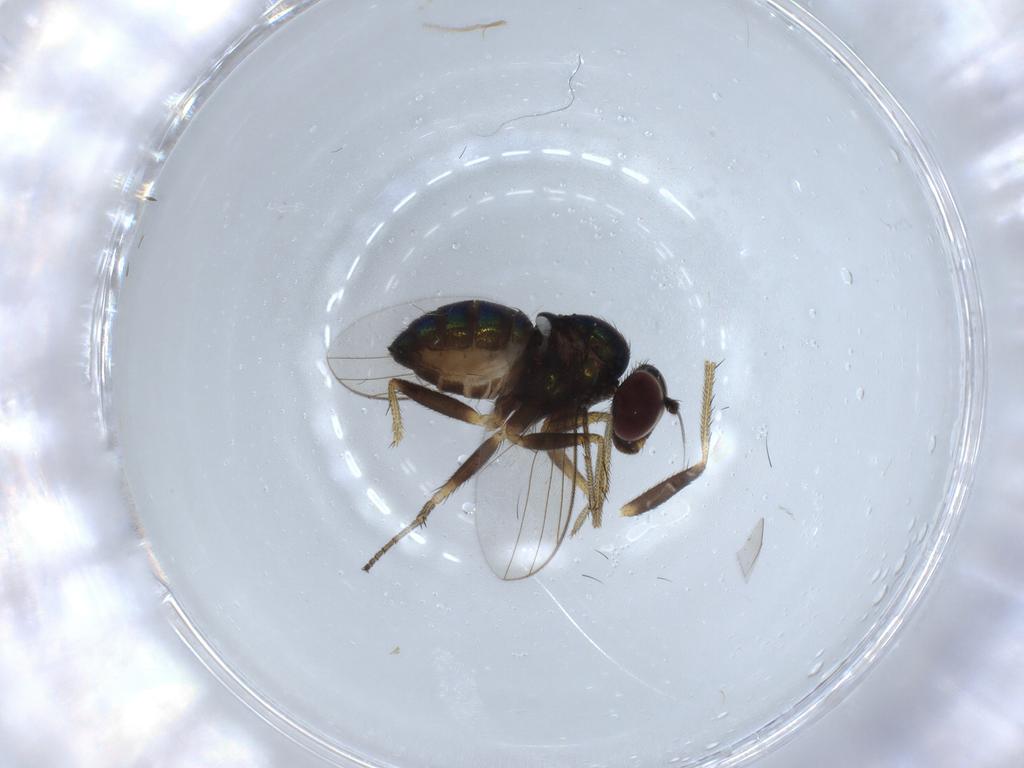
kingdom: Animalia
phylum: Arthropoda
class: Insecta
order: Diptera
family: Dolichopodidae
